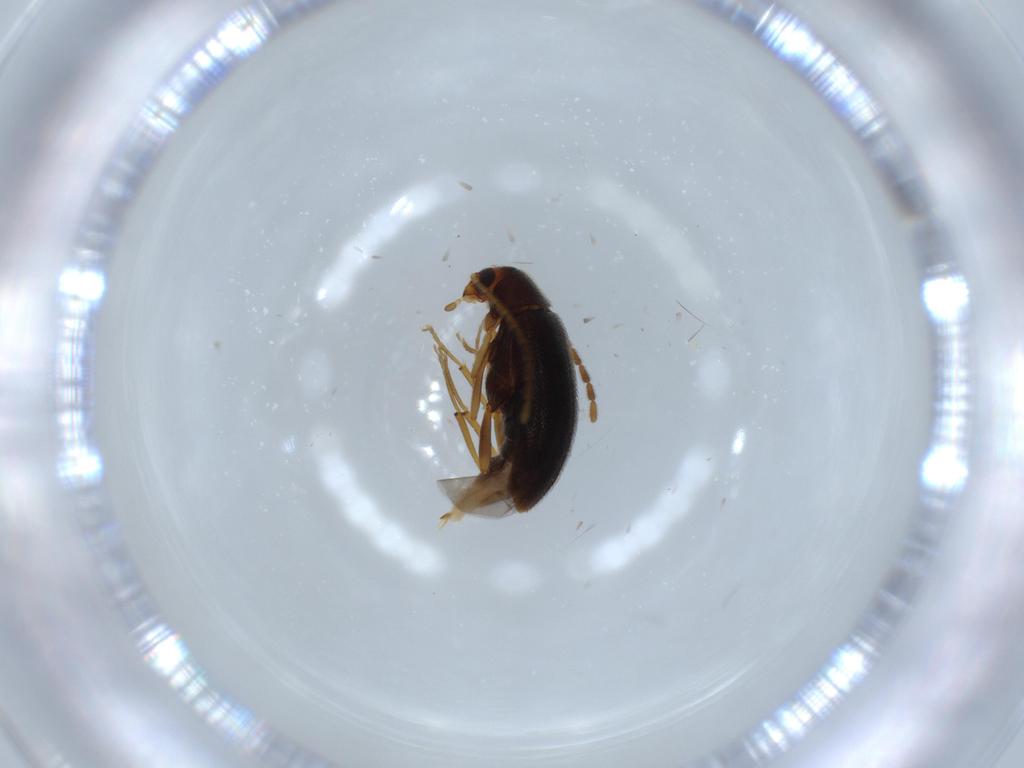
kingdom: Animalia
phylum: Arthropoda
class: Insecta
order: Coleoptera
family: Melandryidae
